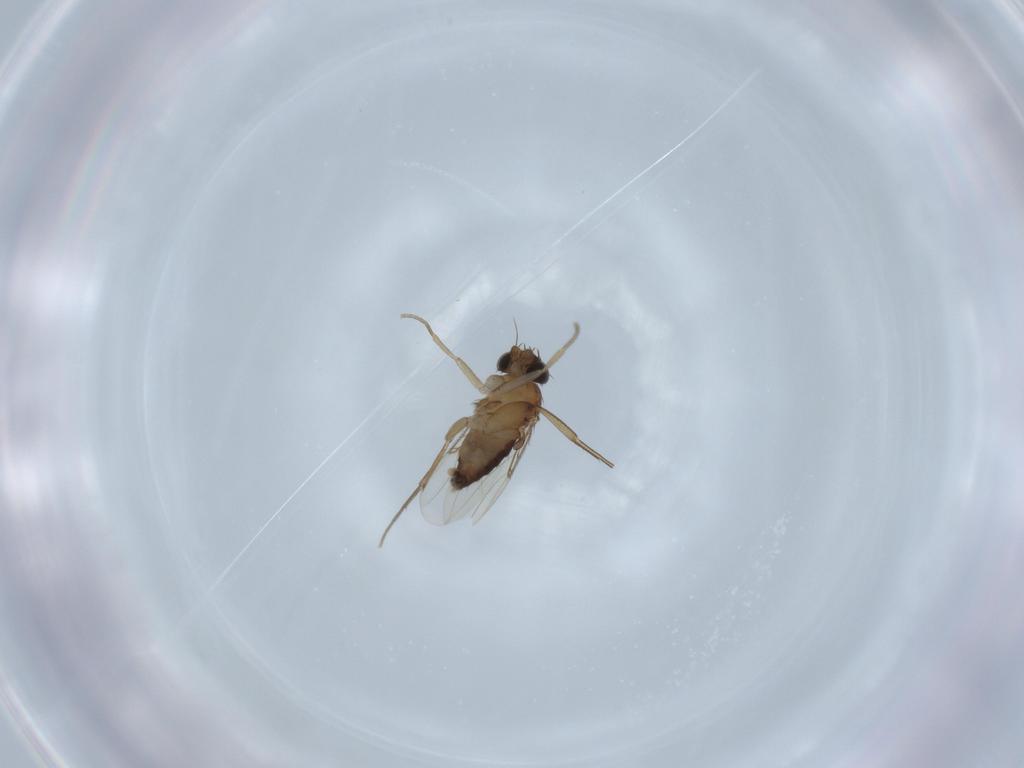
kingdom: Animalia
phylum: Arthropoda
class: Insecta
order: Diptera
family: Phoridae
